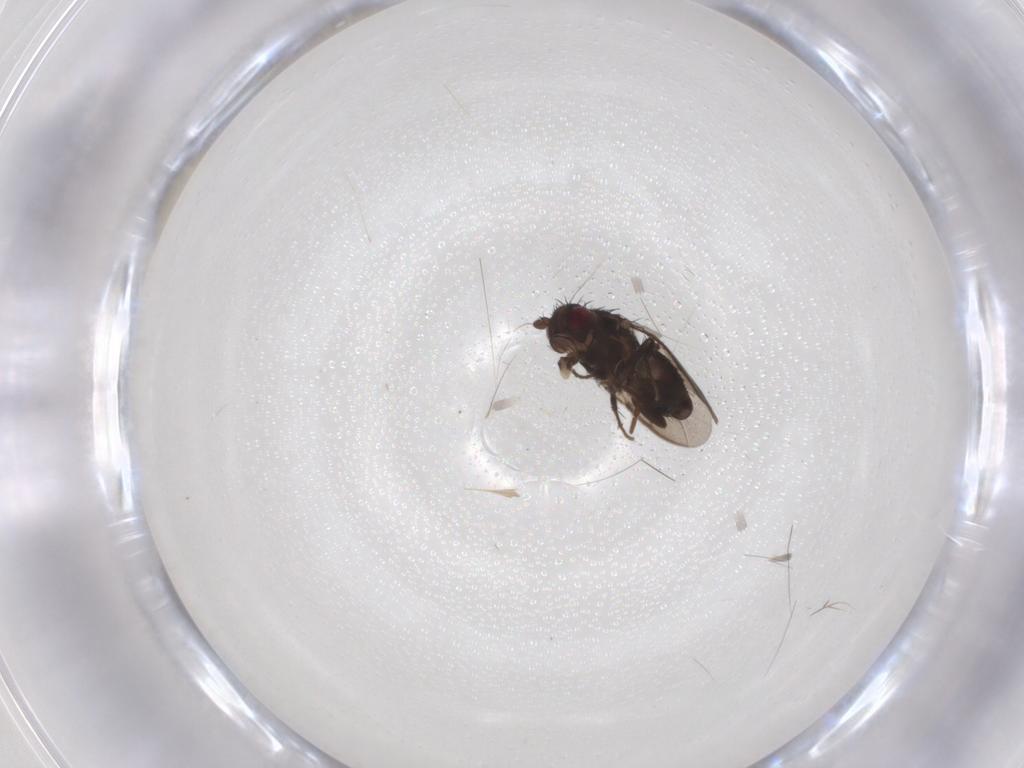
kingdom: Animalia
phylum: Arthropoda
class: Insecta
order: Diptera
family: Sphaeroceridae
